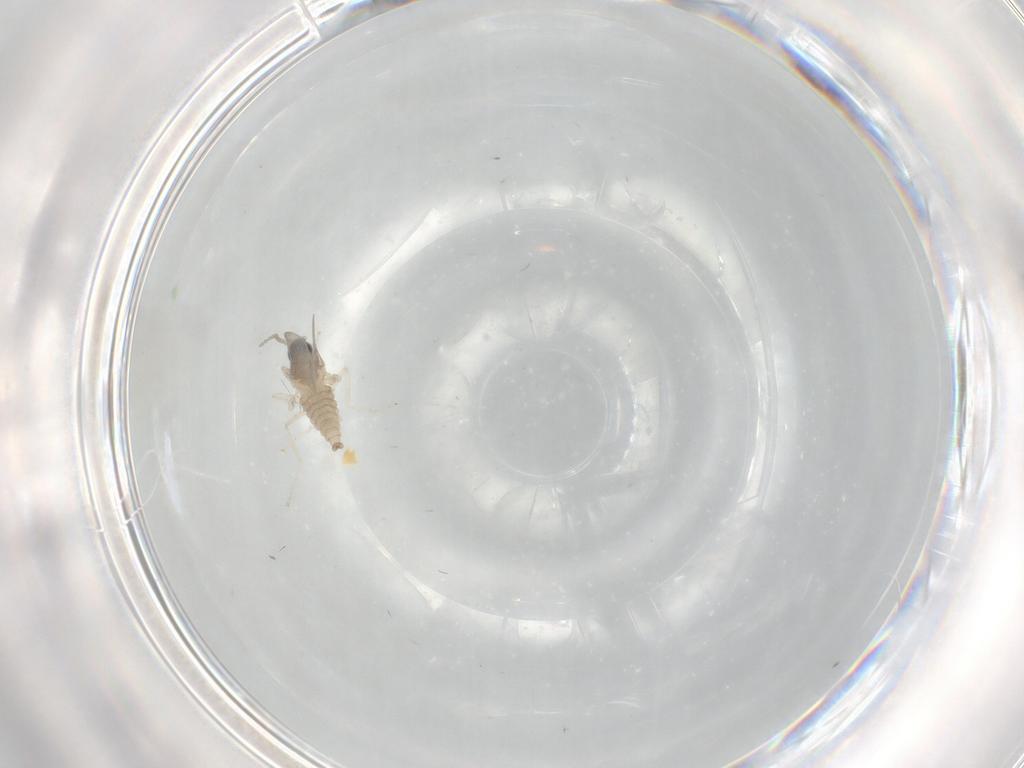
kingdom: Animalia
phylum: Arthropoda
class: Insecta
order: Diptera
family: Cecidomyiidae
